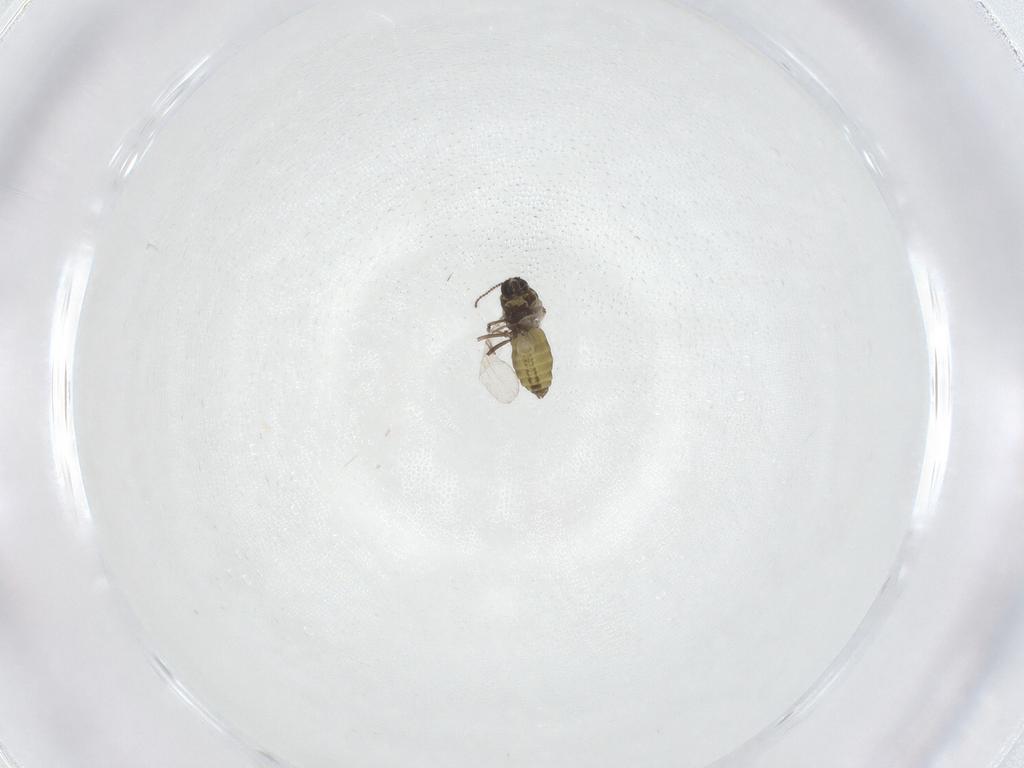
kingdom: Animalia
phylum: Arthropoda
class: Insecta
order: Diptera
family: Ceratopogonidae
